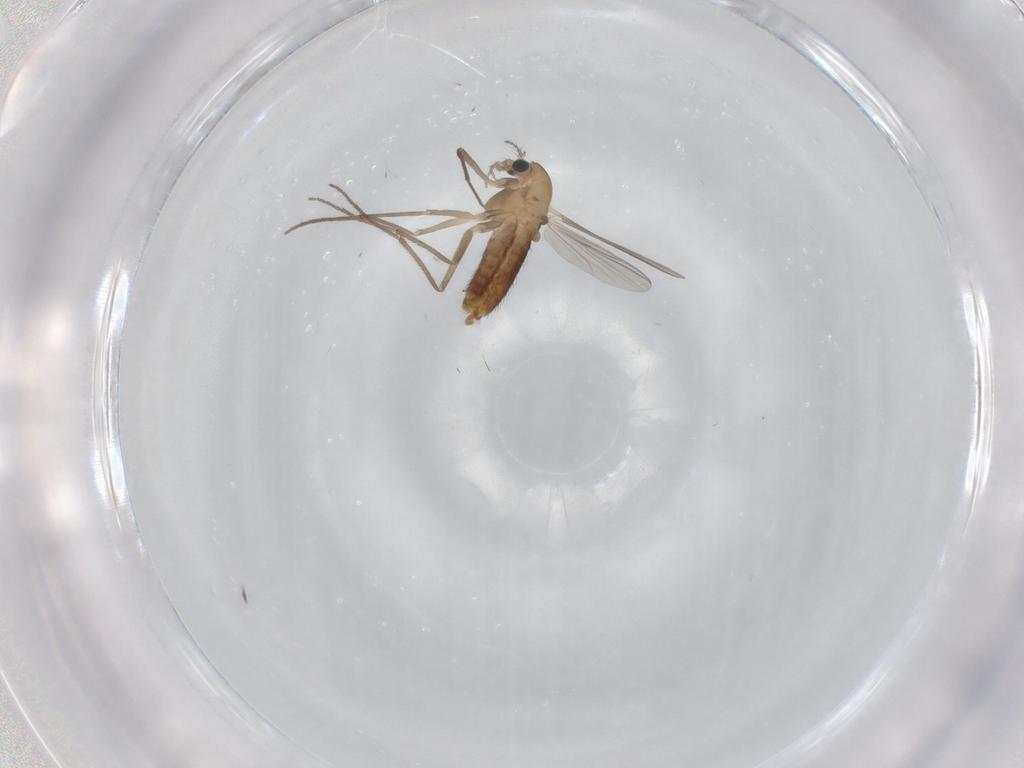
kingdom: Animalia
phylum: Arthropoda
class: Insecta
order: Diptera
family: Chironomidae
